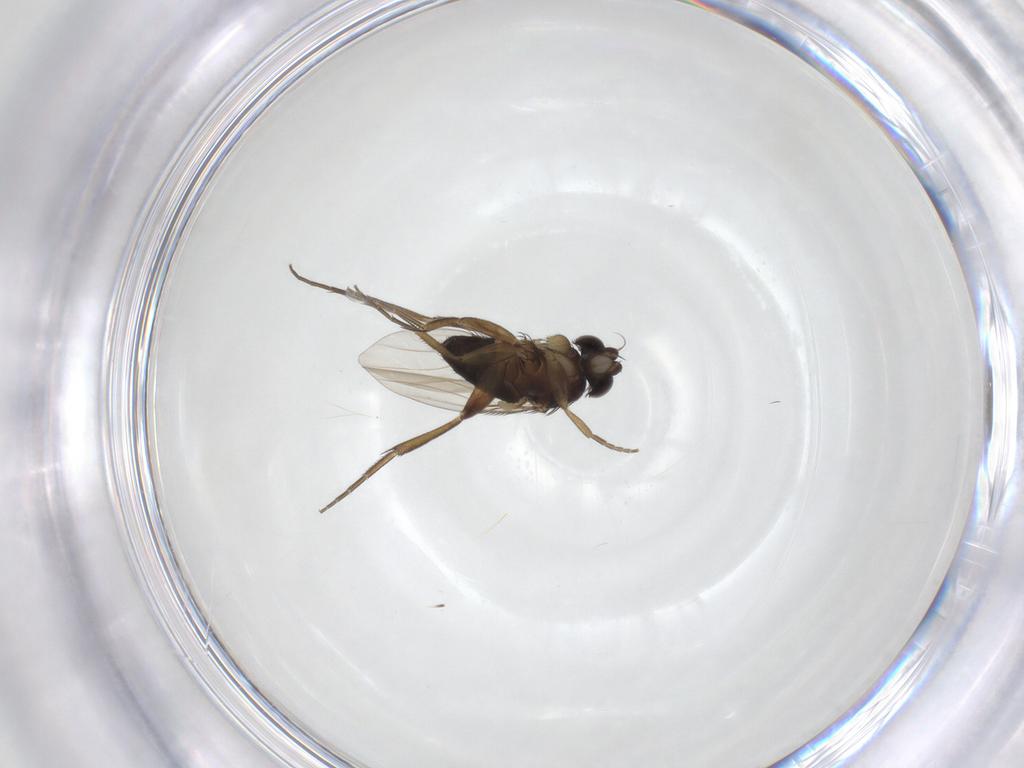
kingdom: Animalia
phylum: Arthropoda
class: Insecta
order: Diptera
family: Phoridae
